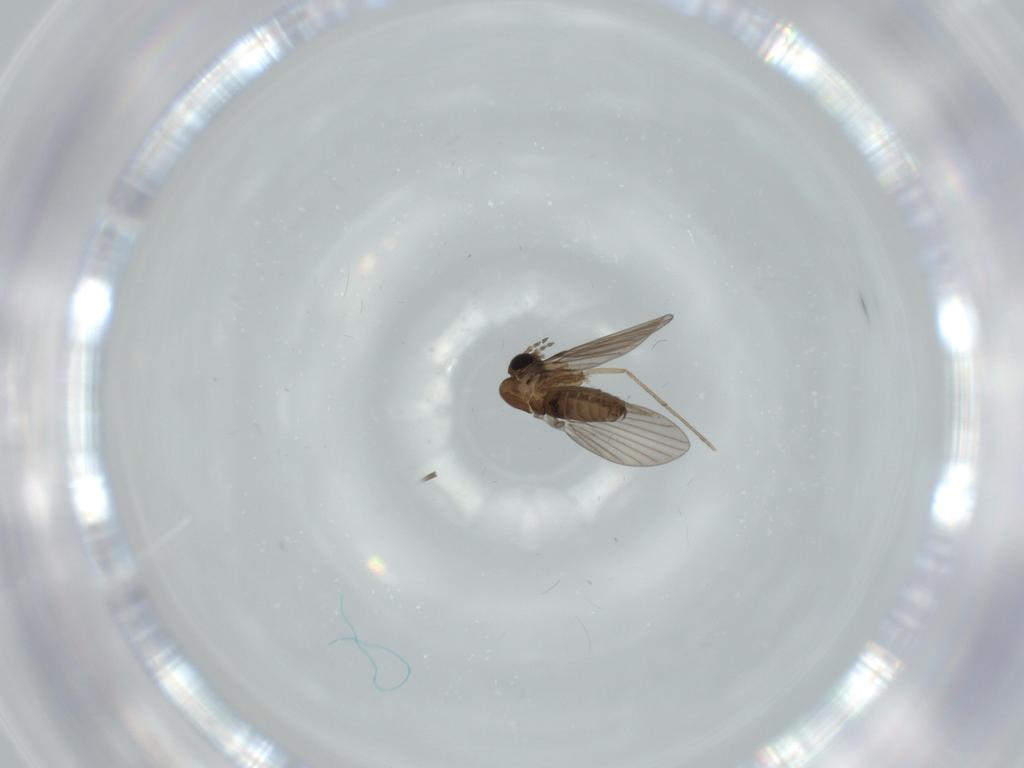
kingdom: Animalia
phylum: Arthropoda
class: Insecta
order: Diptera
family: Psychodidae
